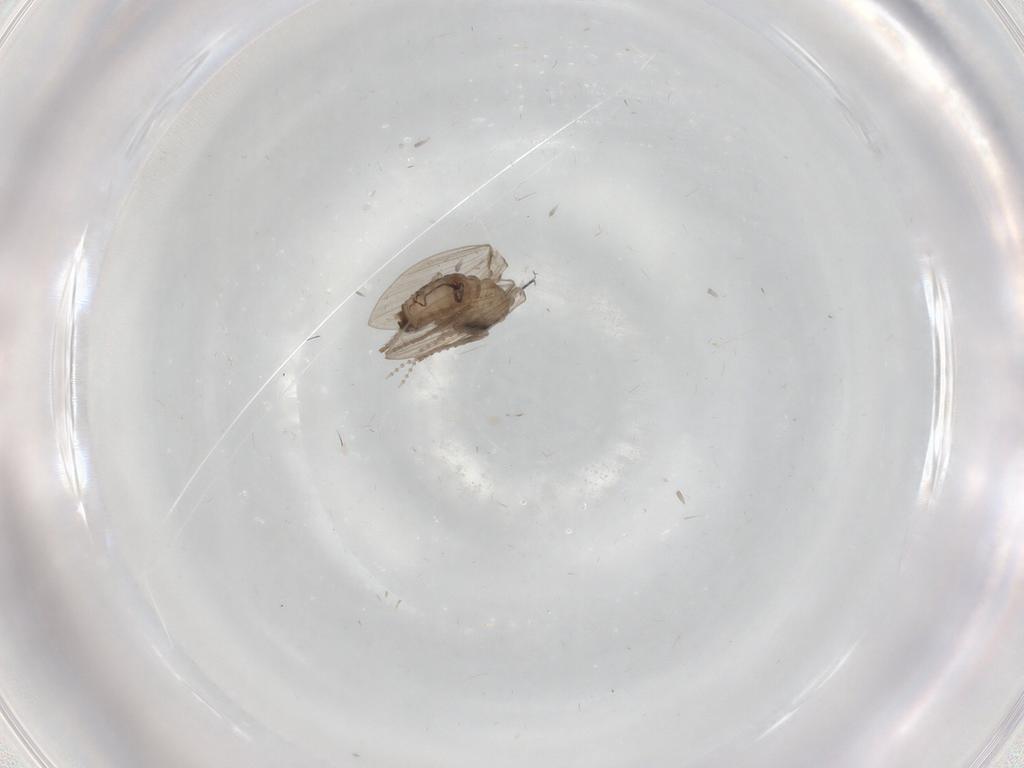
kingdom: Animalia
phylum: Arthropoda
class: Insecta
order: Diptera
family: Psychodidae
